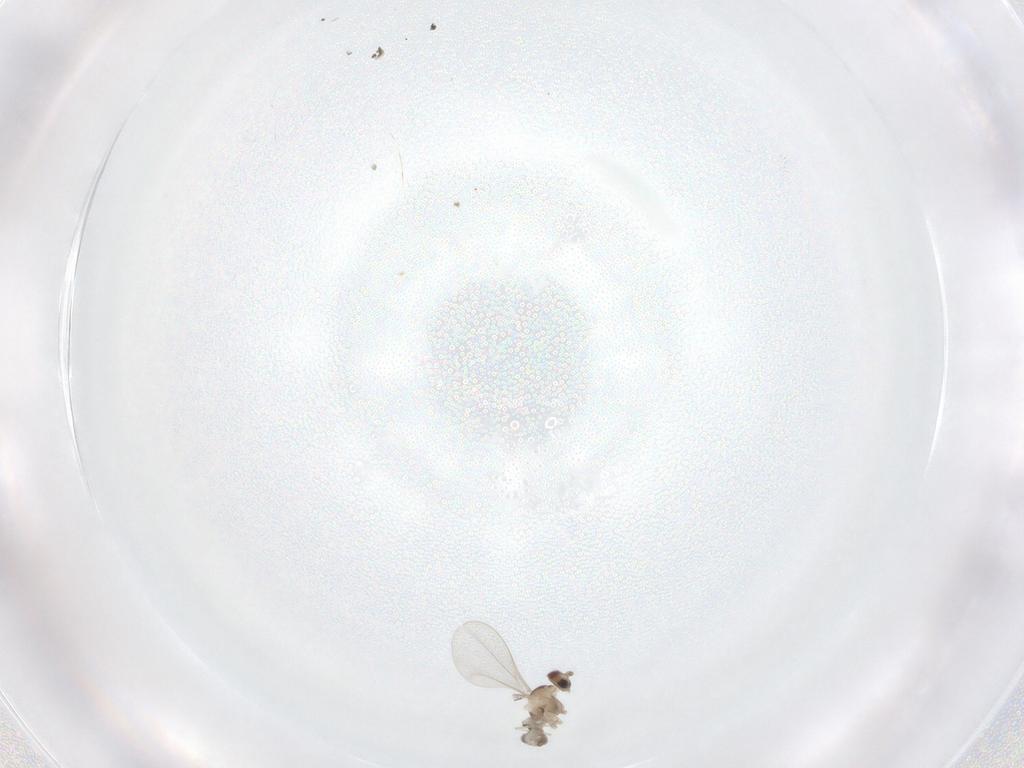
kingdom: Animalia
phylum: Arthropoda
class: Insecta
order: Diptera
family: Cecidomyiidae
